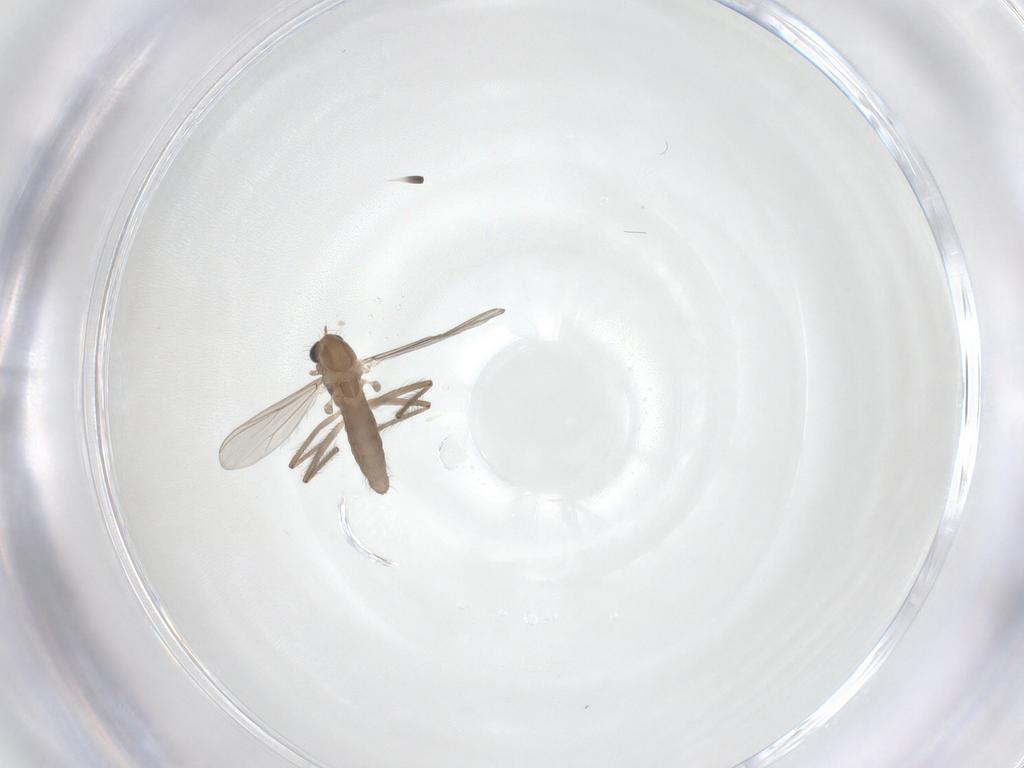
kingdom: Animalia
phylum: Arthropoda
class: Insecta
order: Diptera
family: Chironomidae
